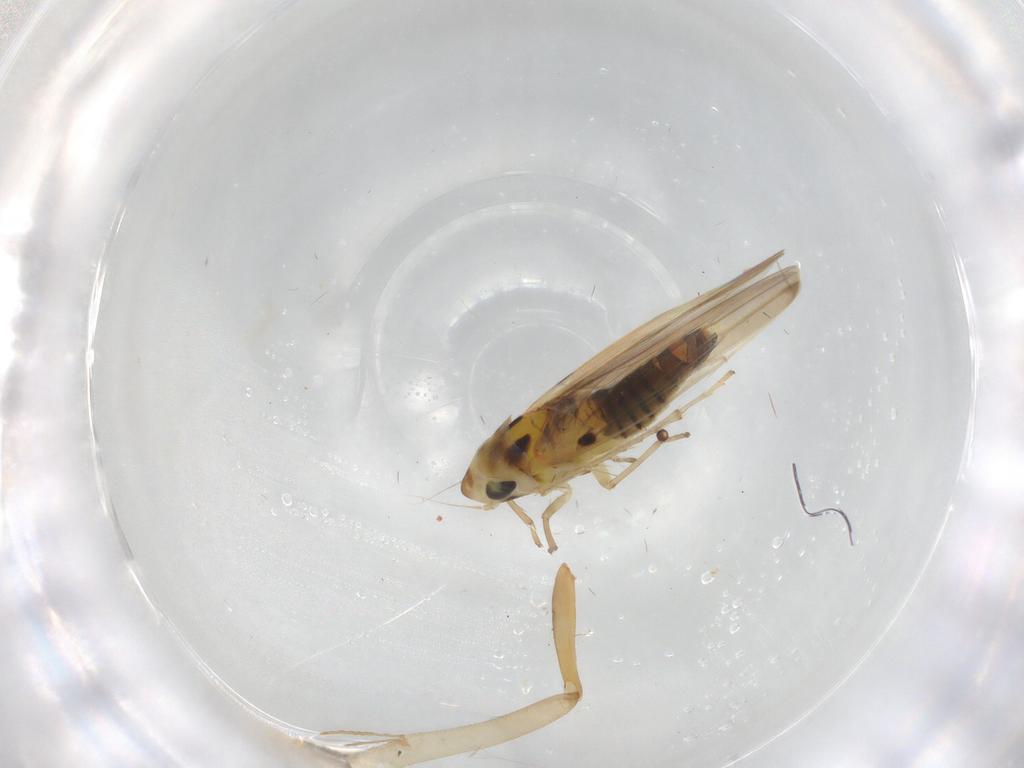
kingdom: Animalia
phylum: Arthropoda
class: Insecta
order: Hemiptera
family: Cicadellidae
